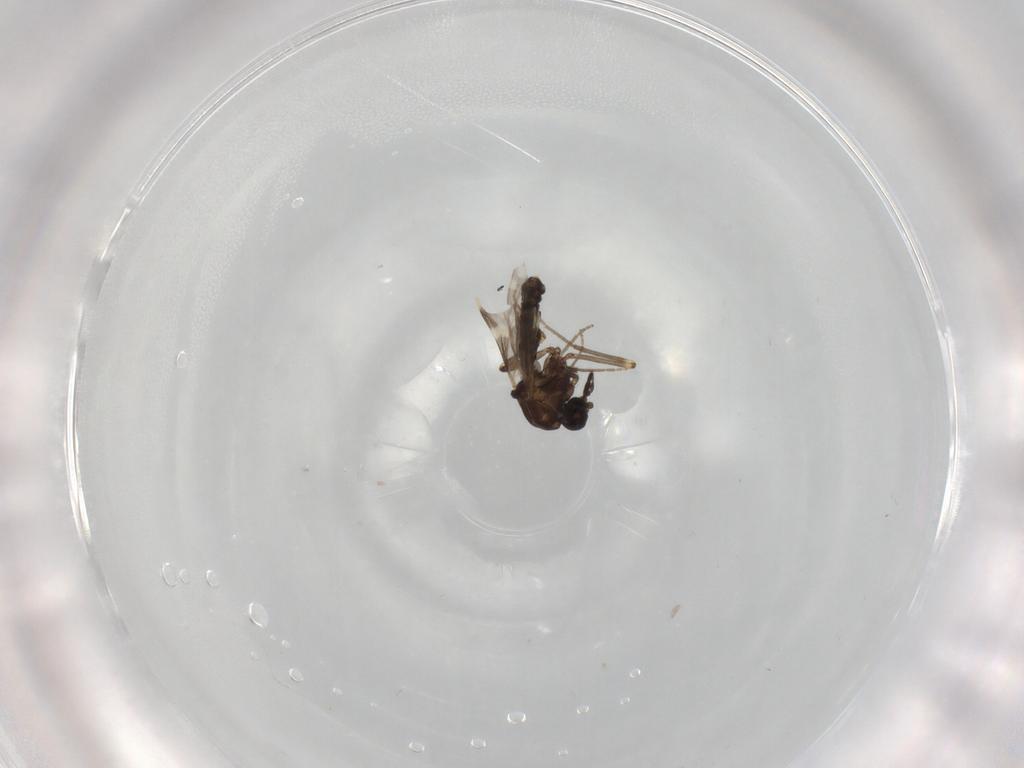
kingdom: Animalia
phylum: Arthropoda
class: Insecta
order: Diptera
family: Ceratopogonidae
